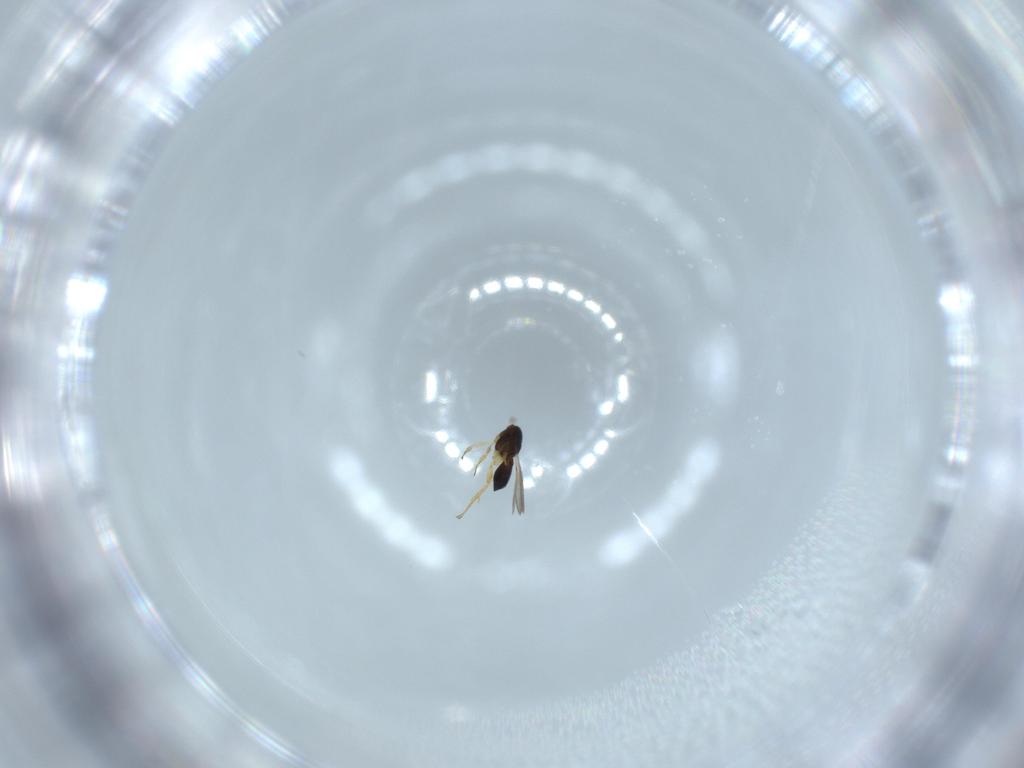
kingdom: Animalia
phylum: Arthropoda
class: Insecta
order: Hymenoptera
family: Scelionidae
